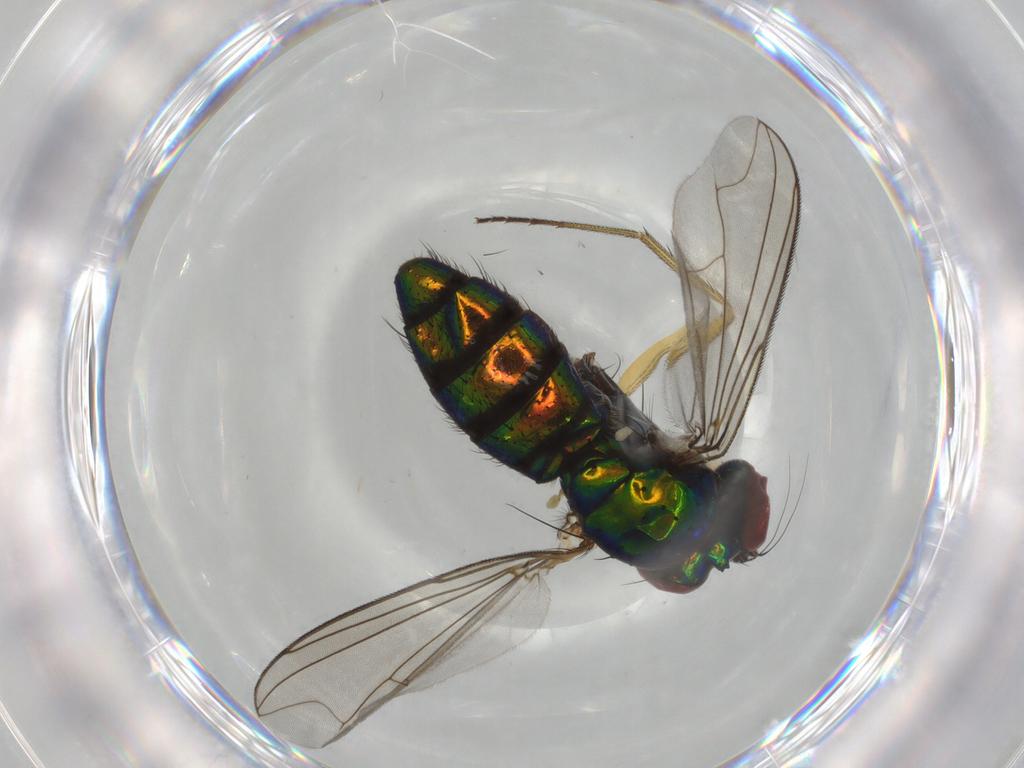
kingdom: Animalia
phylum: Arthropoda
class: Insecta
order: Diptera
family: Dolichopodidae
